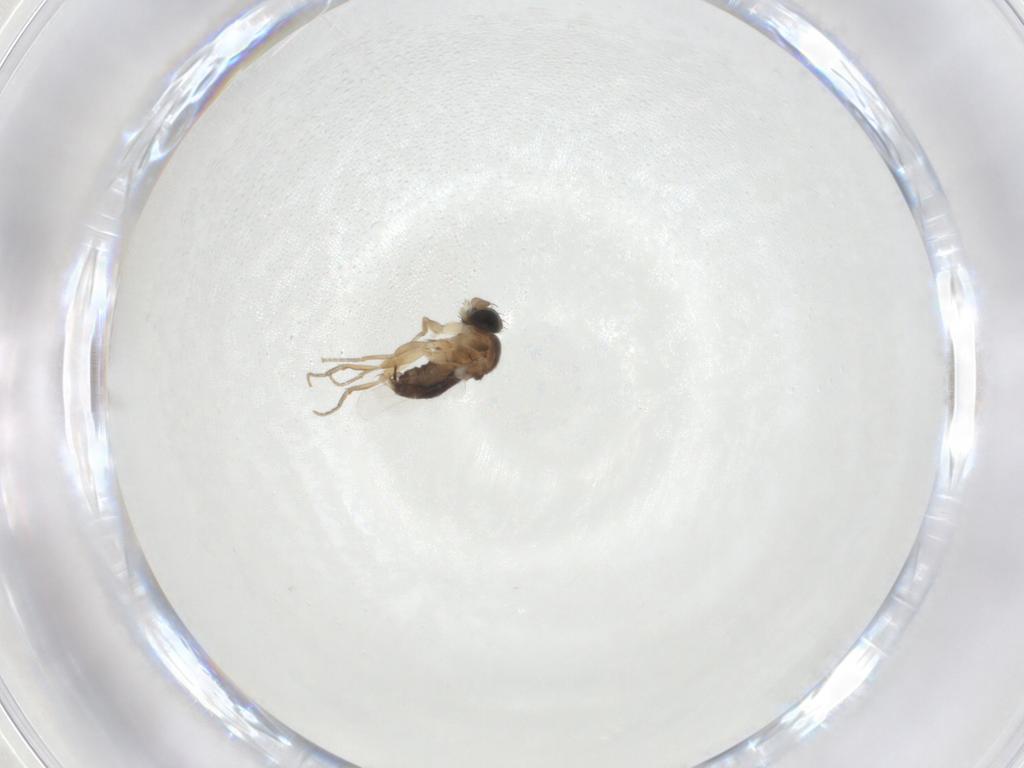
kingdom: Animalia
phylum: Arthropoda
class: Insecta
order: Diptera
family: Phoridae
